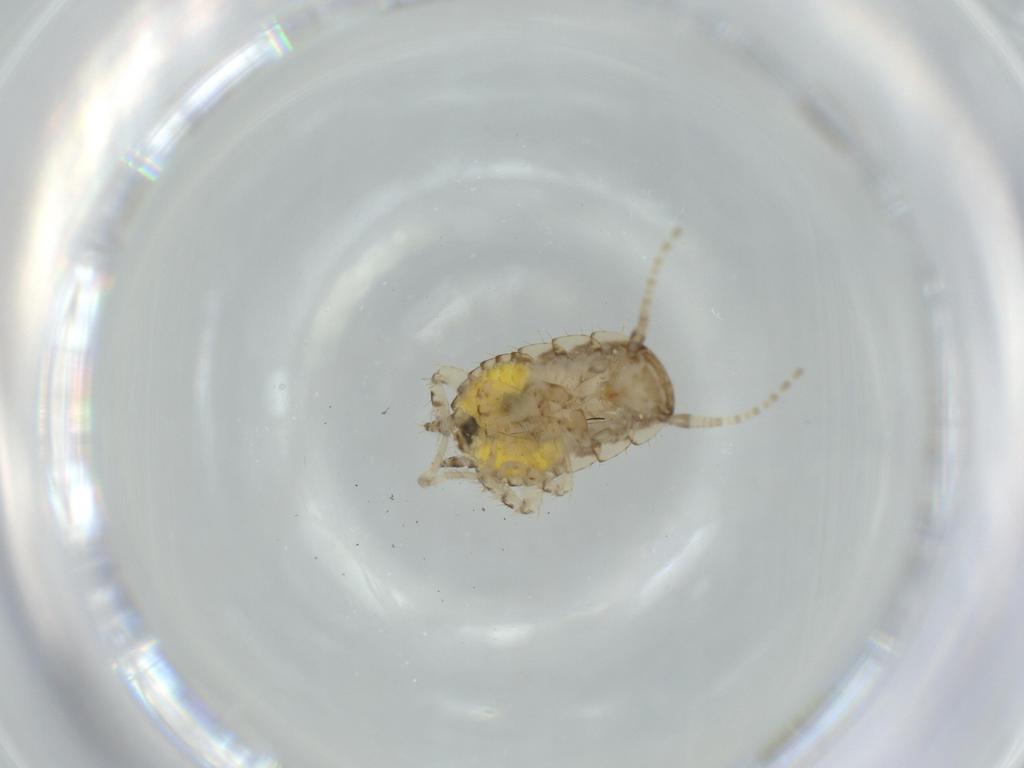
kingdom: Animalia
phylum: Arthropoda
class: Insecta
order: Blattodea
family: Ectobiidae
